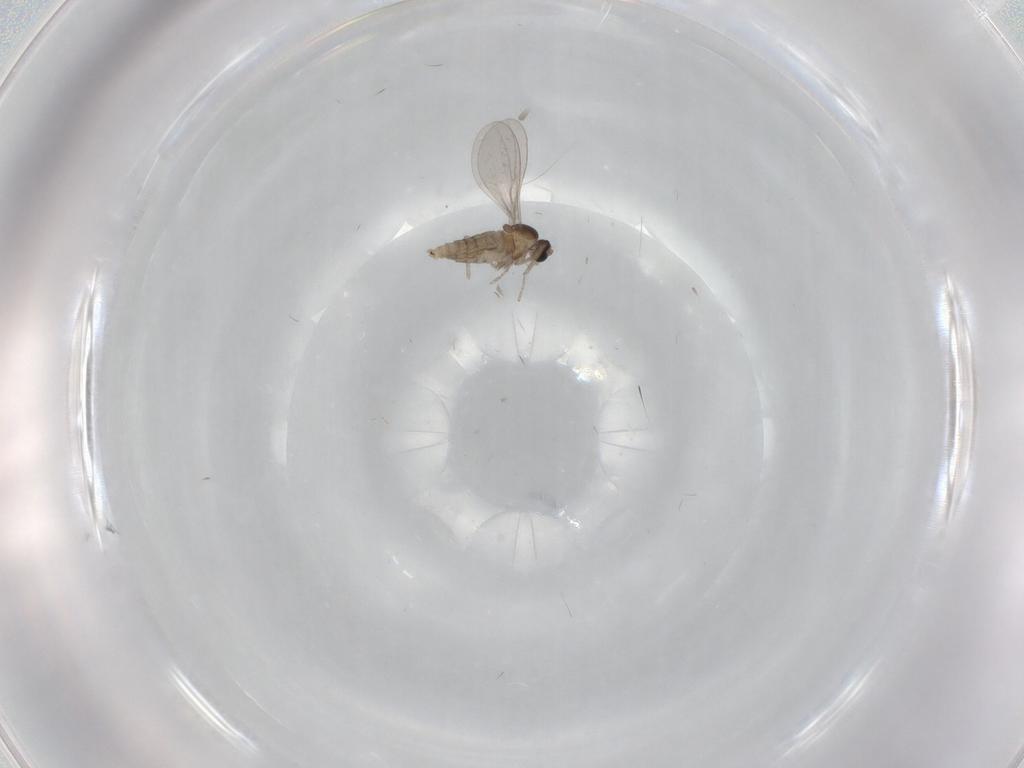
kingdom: Animalia
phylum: Arthropoda
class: Insecta
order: Diptera
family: Cecidomyiidae
